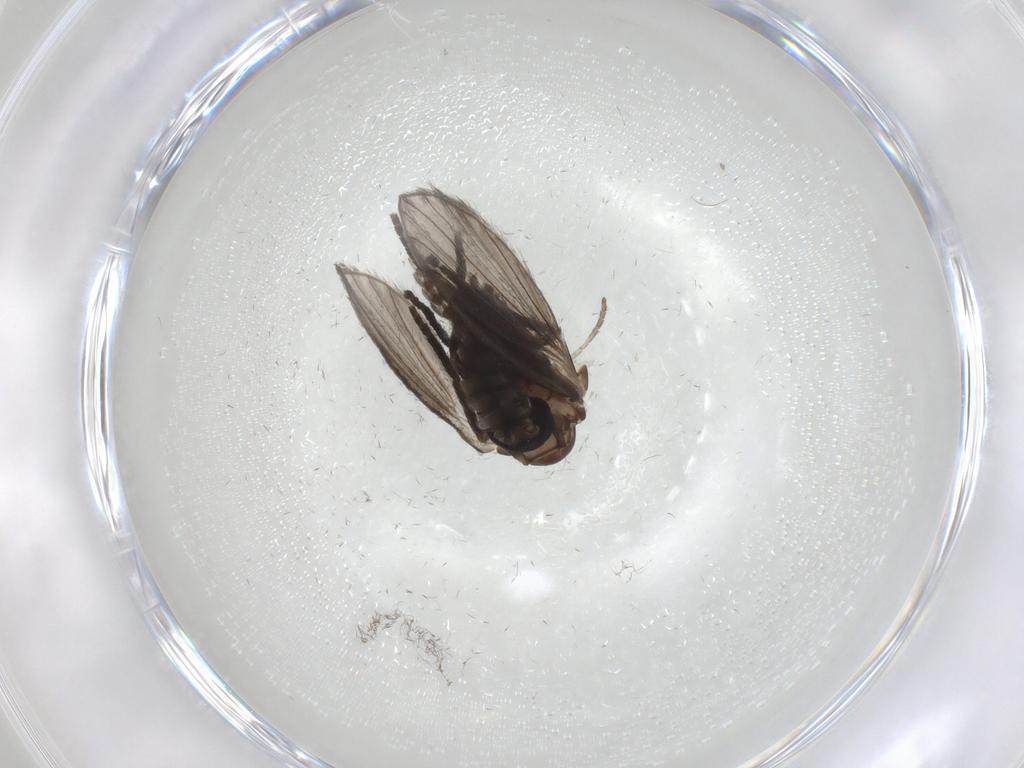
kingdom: Animalia
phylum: Arthropoda
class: Insecta
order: Diptera
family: Psychodidae
